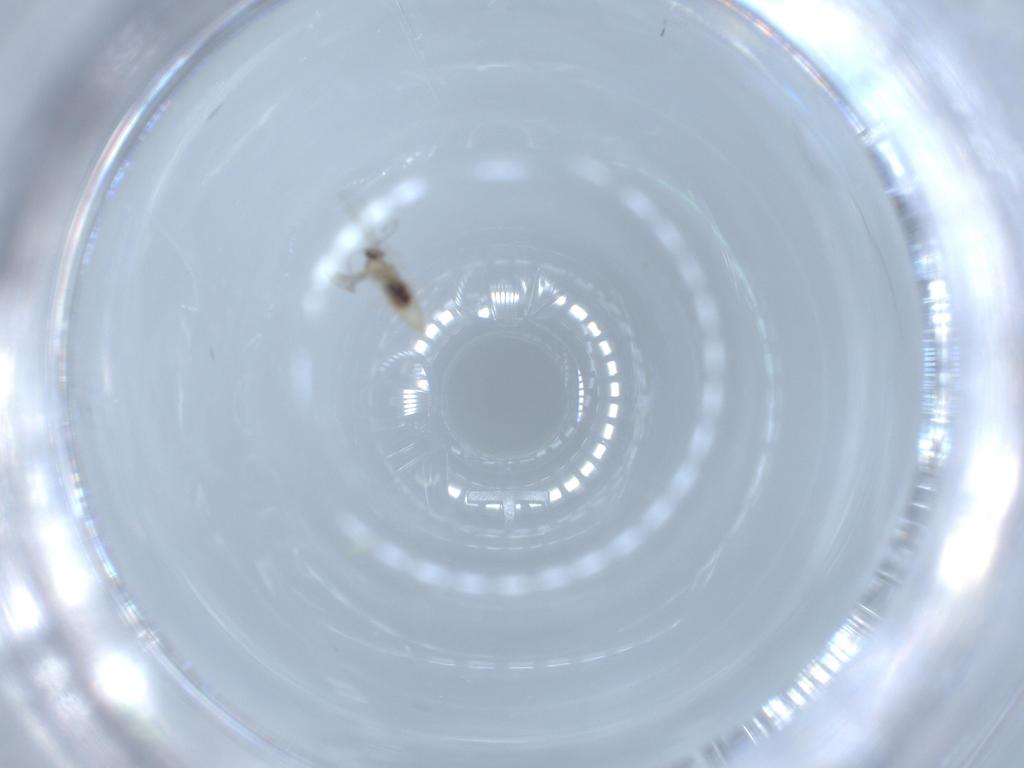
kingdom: Animalia
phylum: Arthropoda
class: Insecta
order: Diptera
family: Cecidomyiidae
